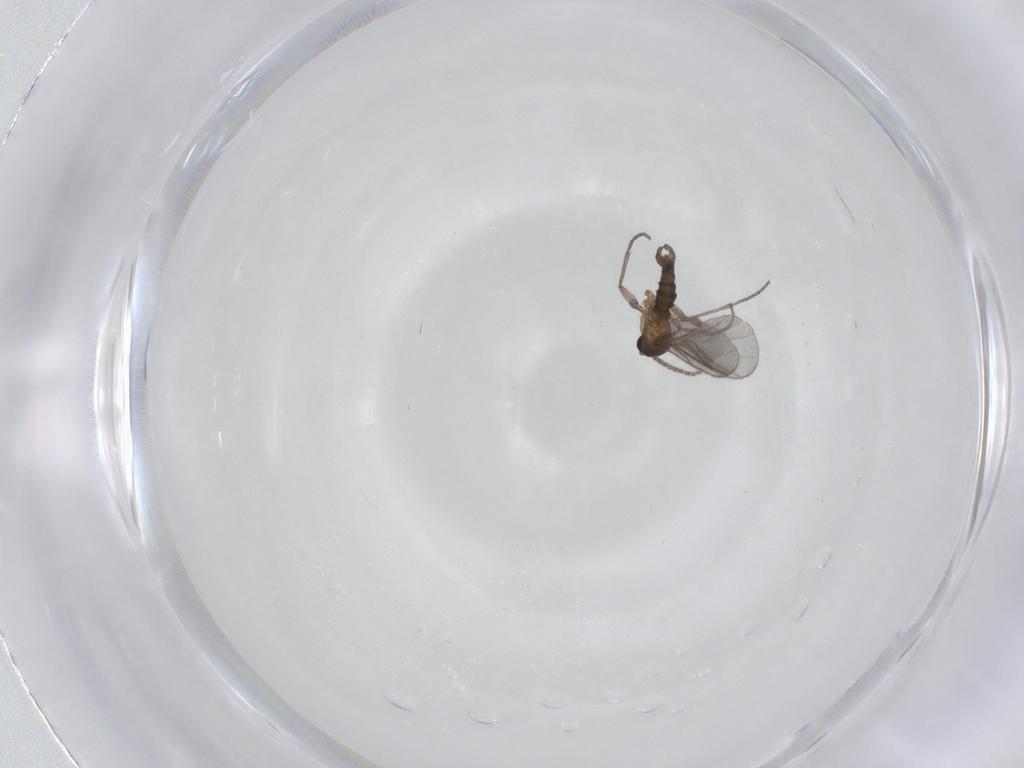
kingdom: Animalia
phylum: Arthropoda
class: Insecta
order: Diptera
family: Sciaridae
